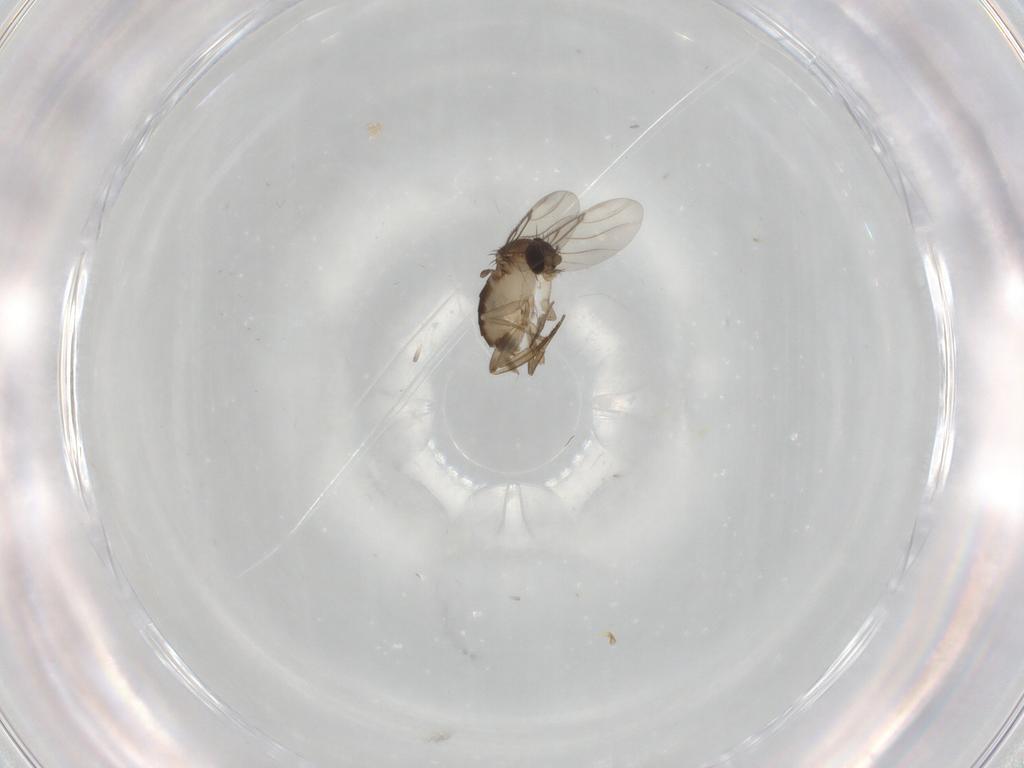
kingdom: Animalia
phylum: Arthropoda
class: Insecta
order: Diptera
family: Phoridae
